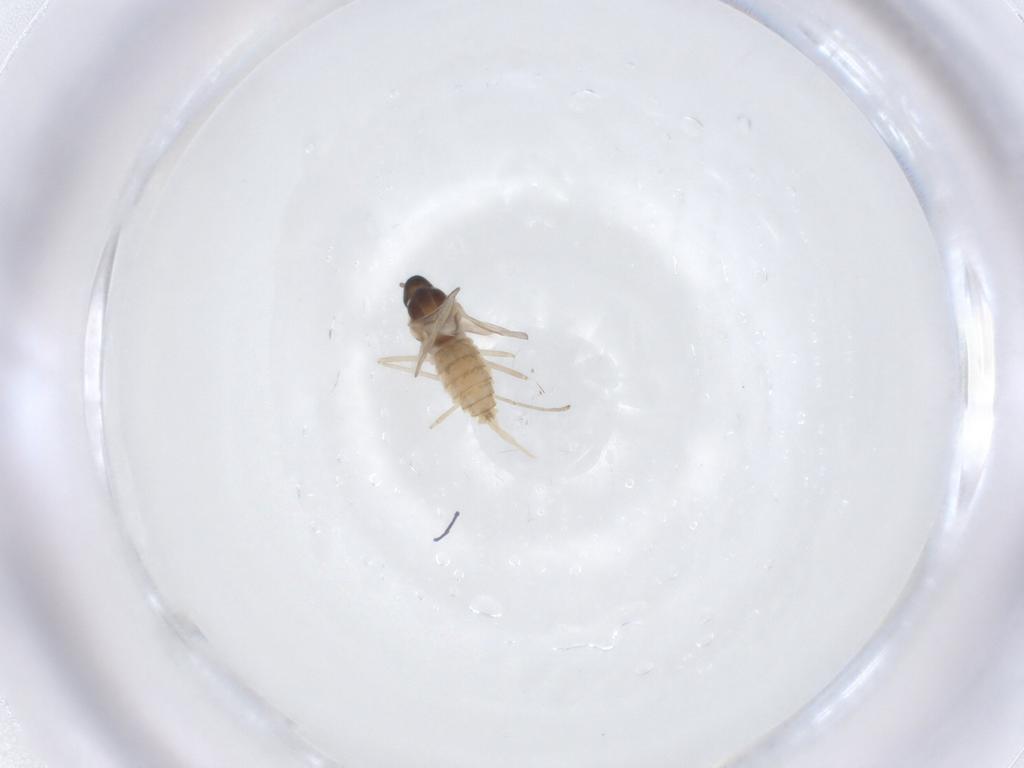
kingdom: Animalia
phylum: Arthropoda
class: Insecta
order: Diptera
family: Cecidomyiidae
